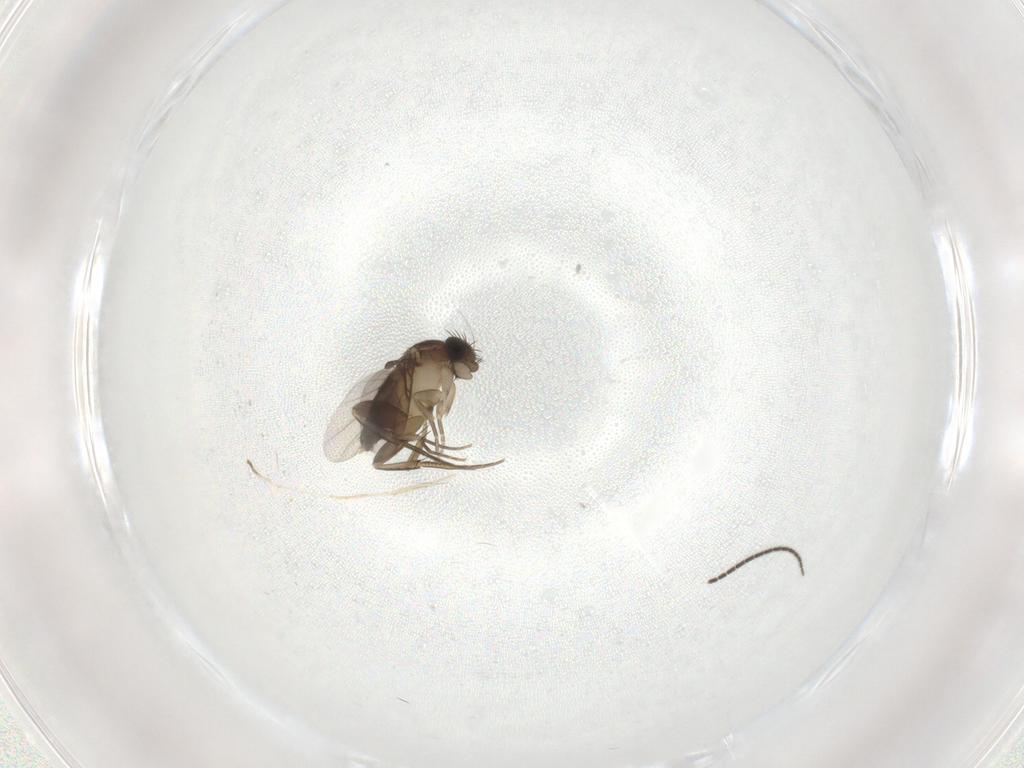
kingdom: Animalia
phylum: Arthropoda
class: Insecta
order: Diptera
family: Phoridae
